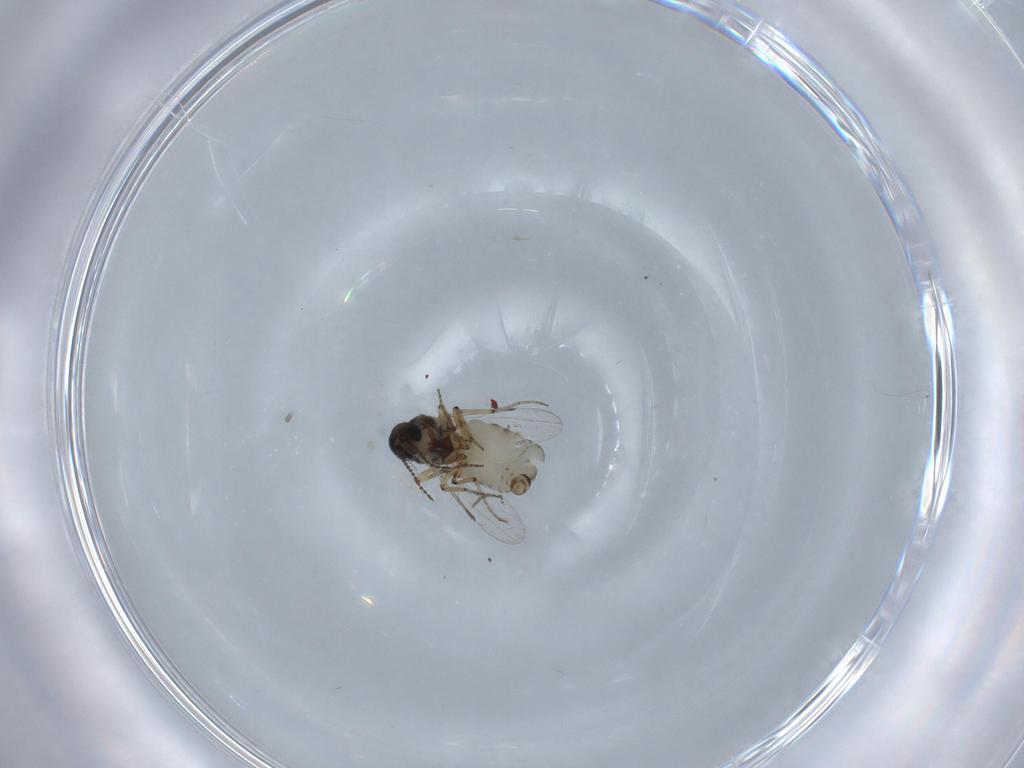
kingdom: Animalia
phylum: Arthropoda
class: Insecta
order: Diptera
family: Ceratopogonidae
